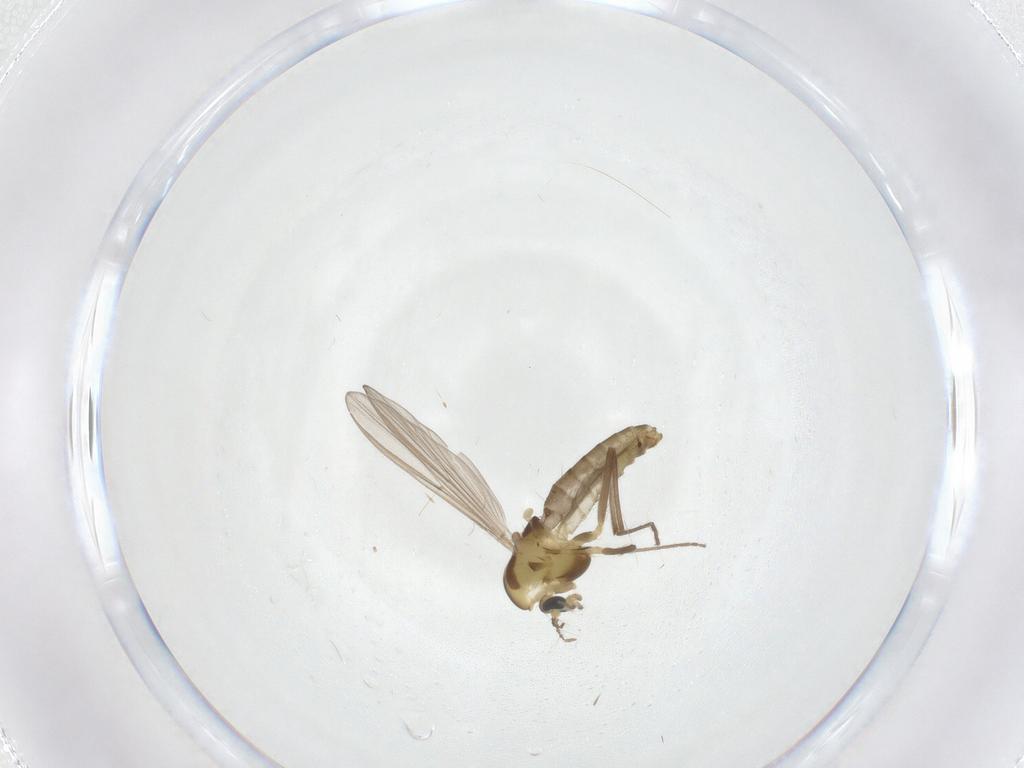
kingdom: Animalia
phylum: Arthropoda
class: Insecta
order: Diptera
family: Chironomidae
